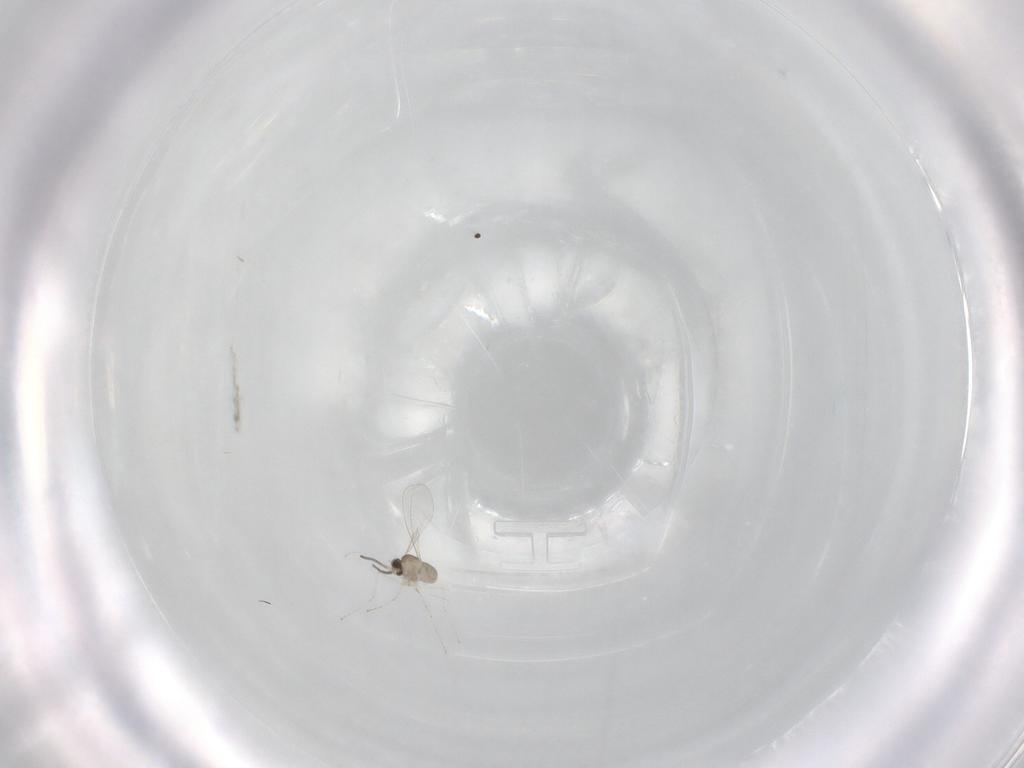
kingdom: Animalia
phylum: Arthropoda
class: Insecta
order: Diptera
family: Cecidomyiidae
